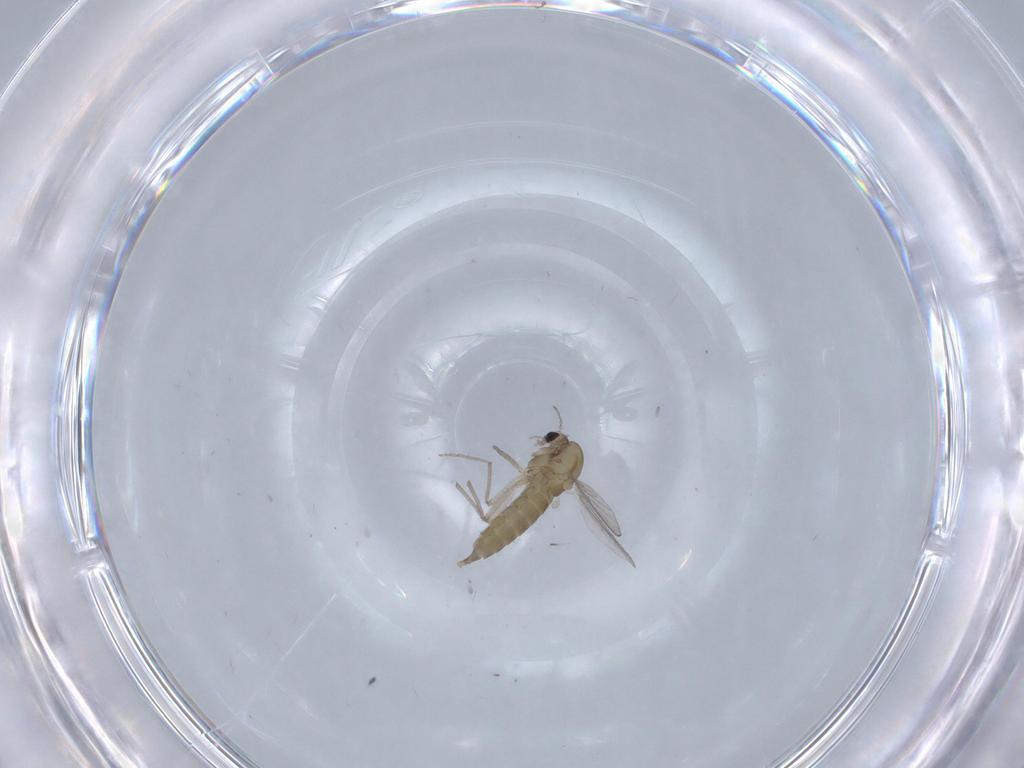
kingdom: Animalia
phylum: Arthropoda
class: Insecta
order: Diptera
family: Chironomidae
